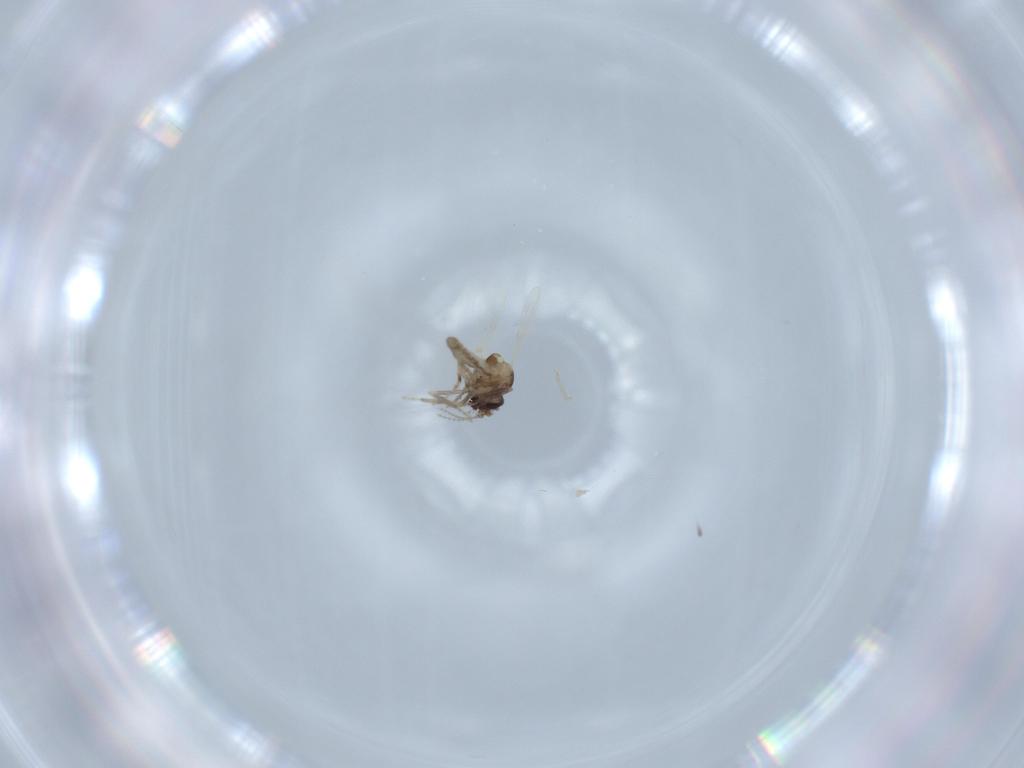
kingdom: Animalia
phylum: Arthropoda
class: Insecta
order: Diptera
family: Ceratopogonidae
